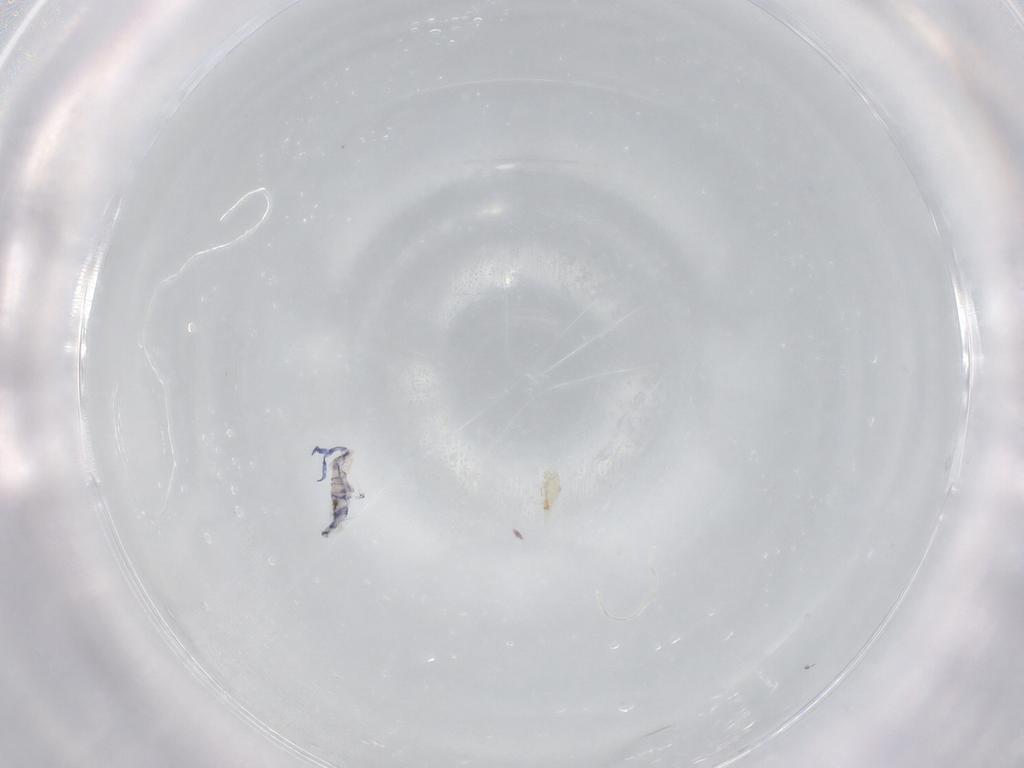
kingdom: Animalia
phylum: Arthropoda
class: Collembola
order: Entomobryomorpha
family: Entomobryidae
